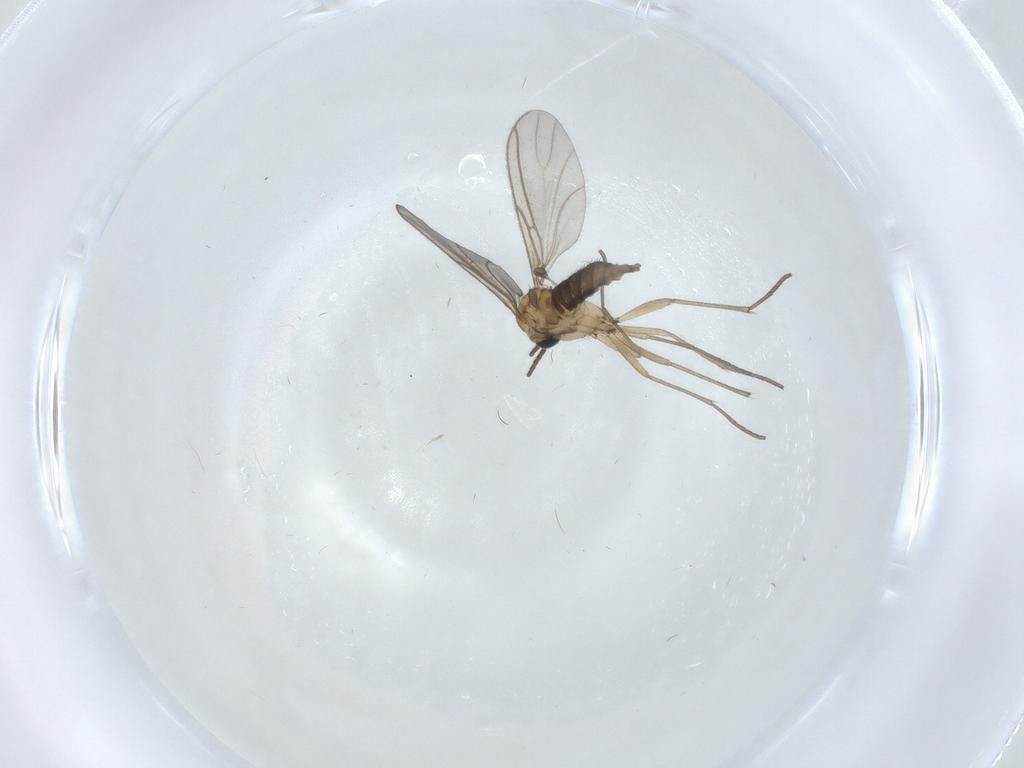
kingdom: Animalia
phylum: Arthropoda
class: Insecta
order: Diptera
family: Sciaridae
